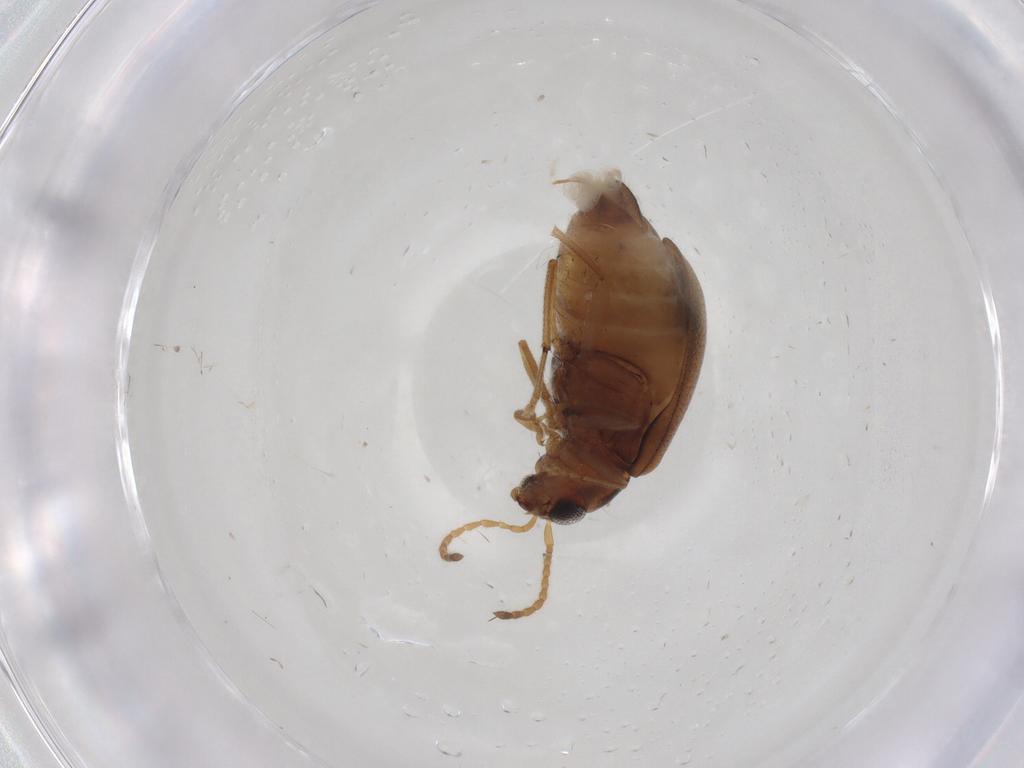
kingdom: Animalia
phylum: Arthropoda
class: Insecta
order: Coleoptera
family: Chrysomelidae
